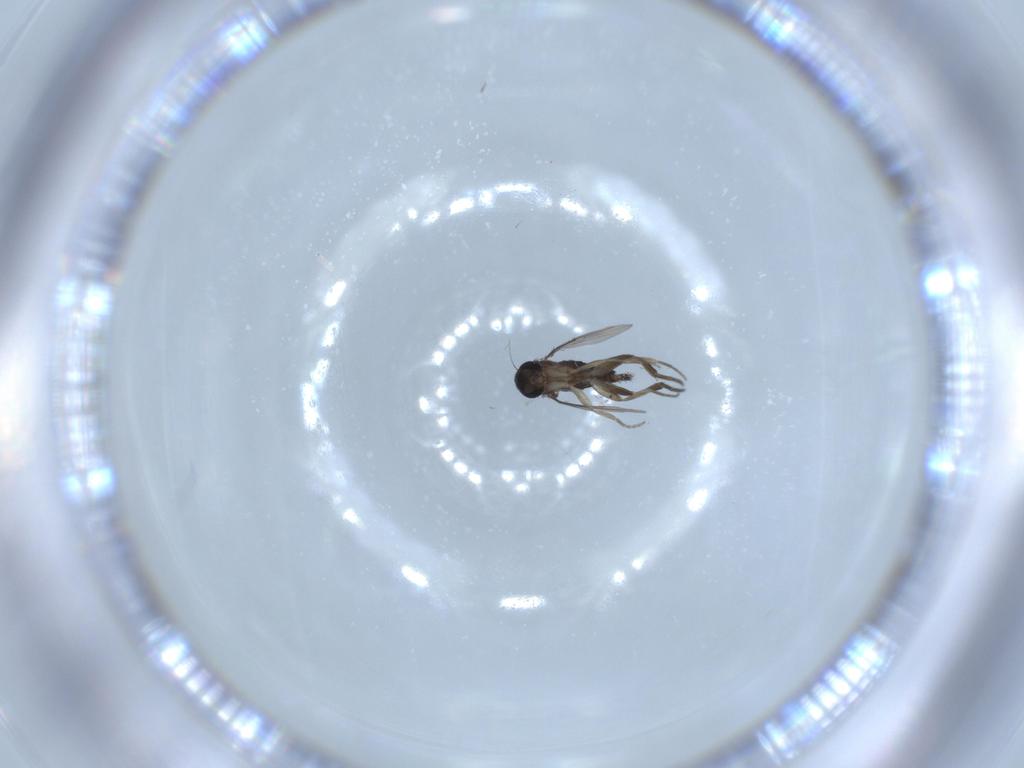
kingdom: Animalia
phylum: Arthropoda
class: Insecta
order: Diptera
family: Phoridae
